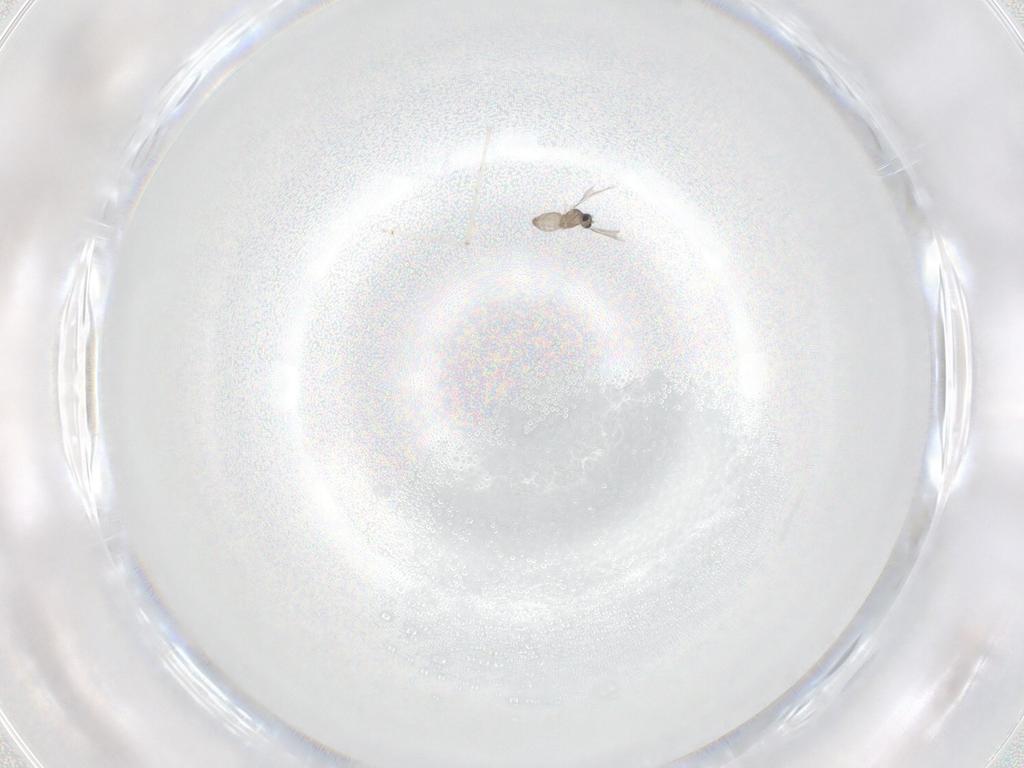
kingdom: Animalia
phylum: Arthropoda
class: Insecta
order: Diptera
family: Cecidomyiidae
